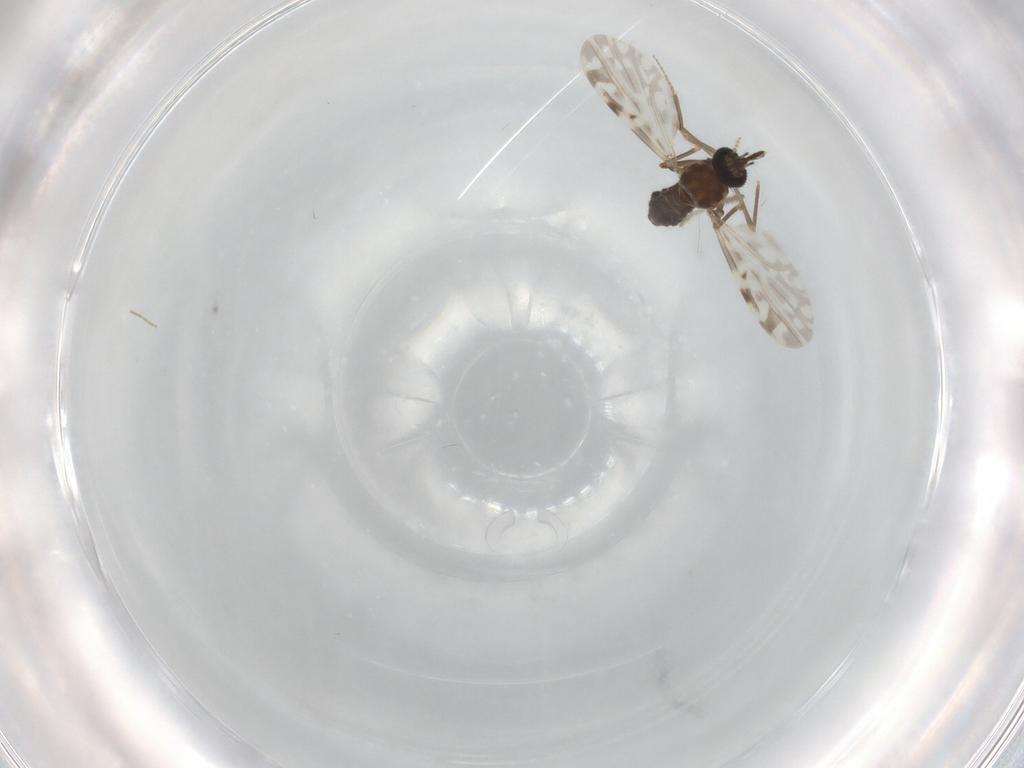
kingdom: Animalia
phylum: Arthropoda
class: Insecta
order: Diptera
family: Ceratopogonidae
